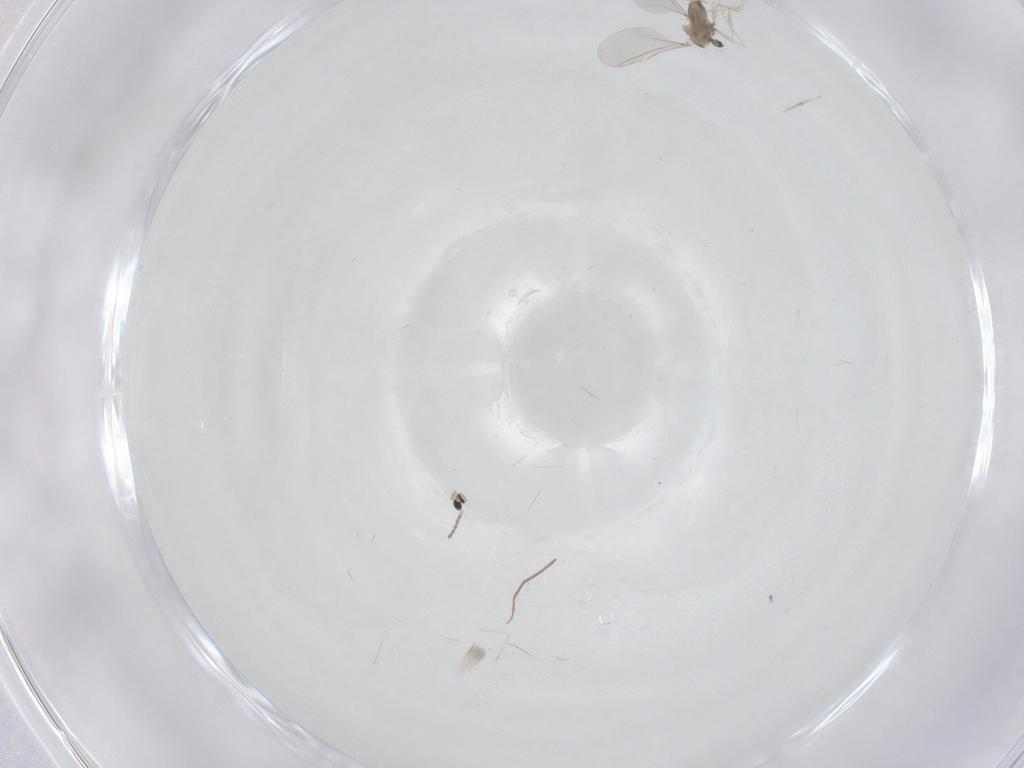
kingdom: Animalia
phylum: Arthropoda
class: Insecta
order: Diptera
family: Cecidomyiidae
